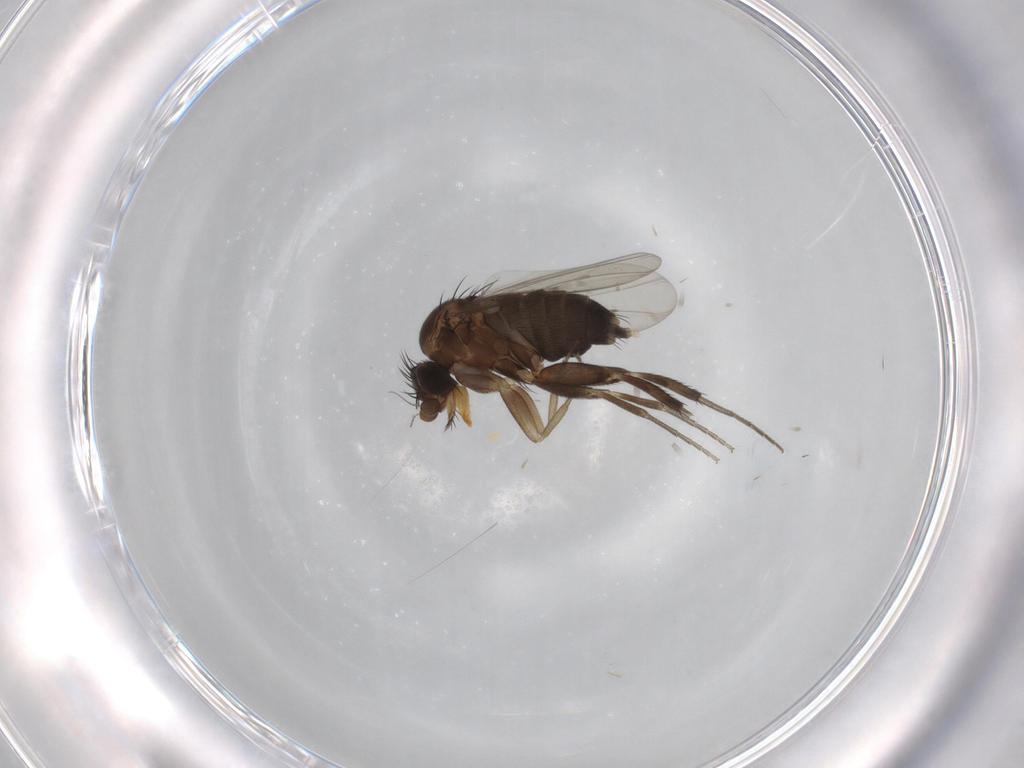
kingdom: Animalia
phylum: Arthropoda
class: Insecta
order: Diptera
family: Phoridae
